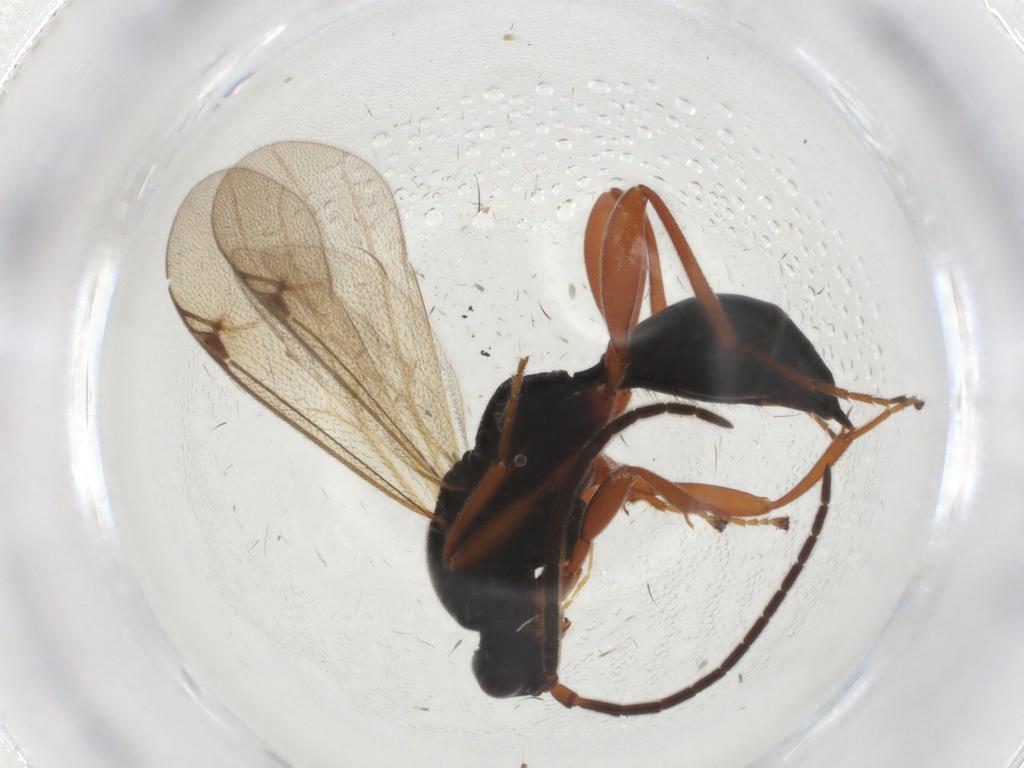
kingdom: Animalia
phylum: Arthropoda
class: Insecta
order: Hymenoptera
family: Proctotrupidae
